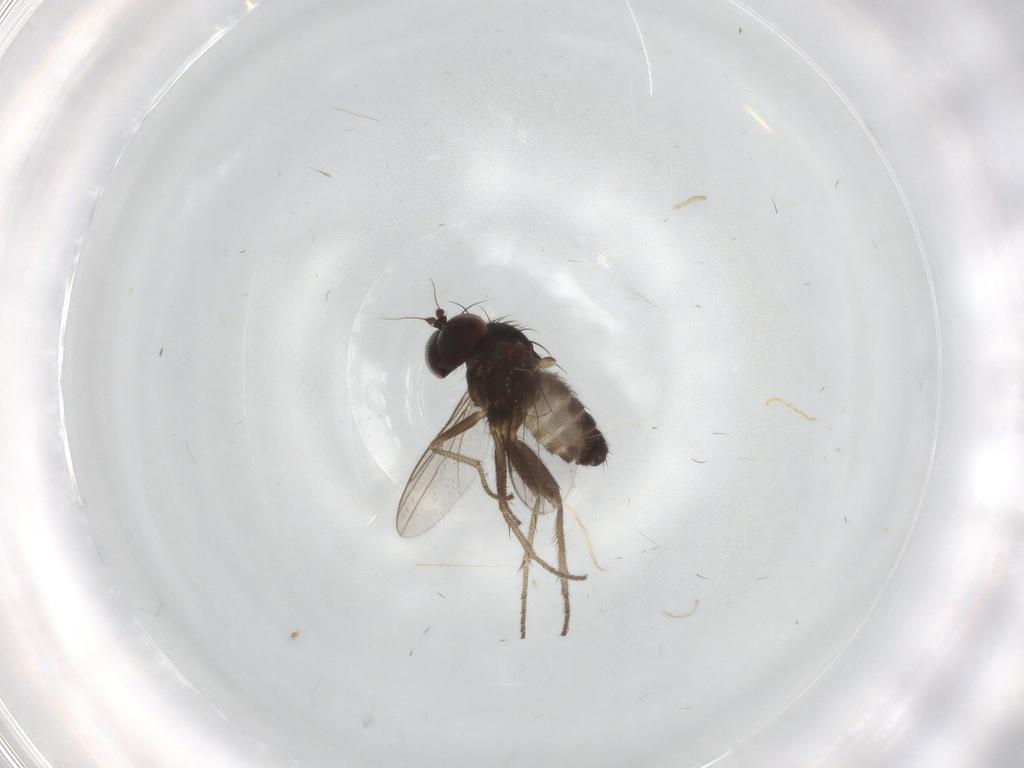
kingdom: Animalia
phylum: Arthropoda
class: Insecta
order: Diptera
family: Dolichopodidae
